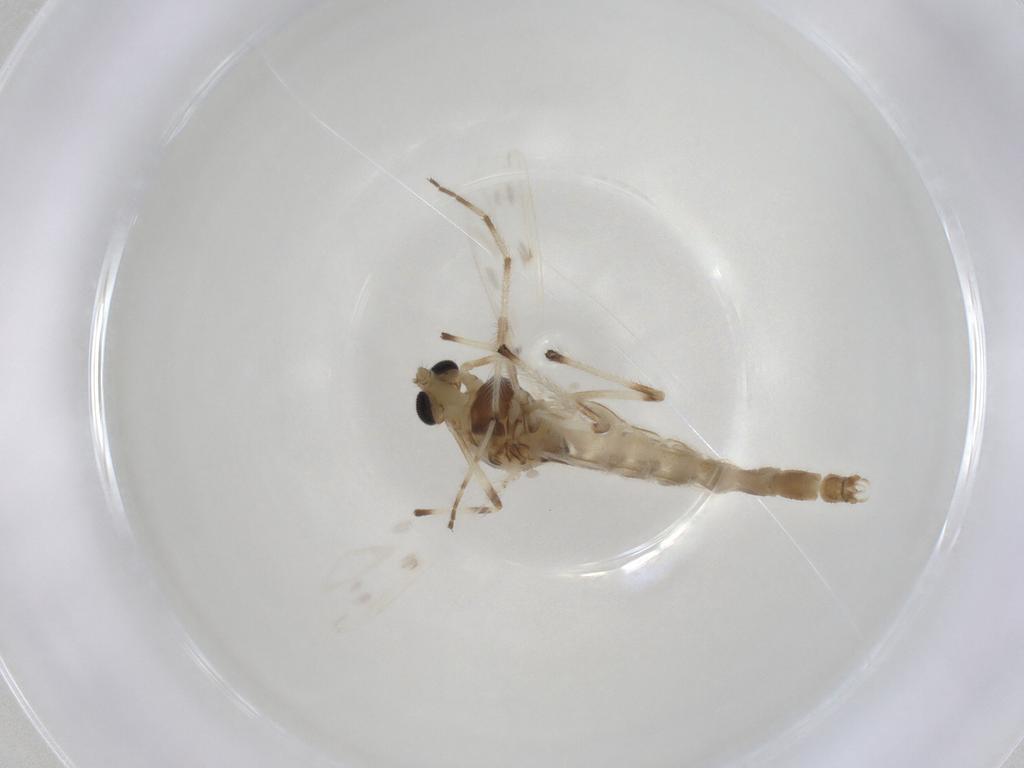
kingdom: Animalia
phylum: Arthropoda
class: Insecta
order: Diptera
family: Chironomidae
